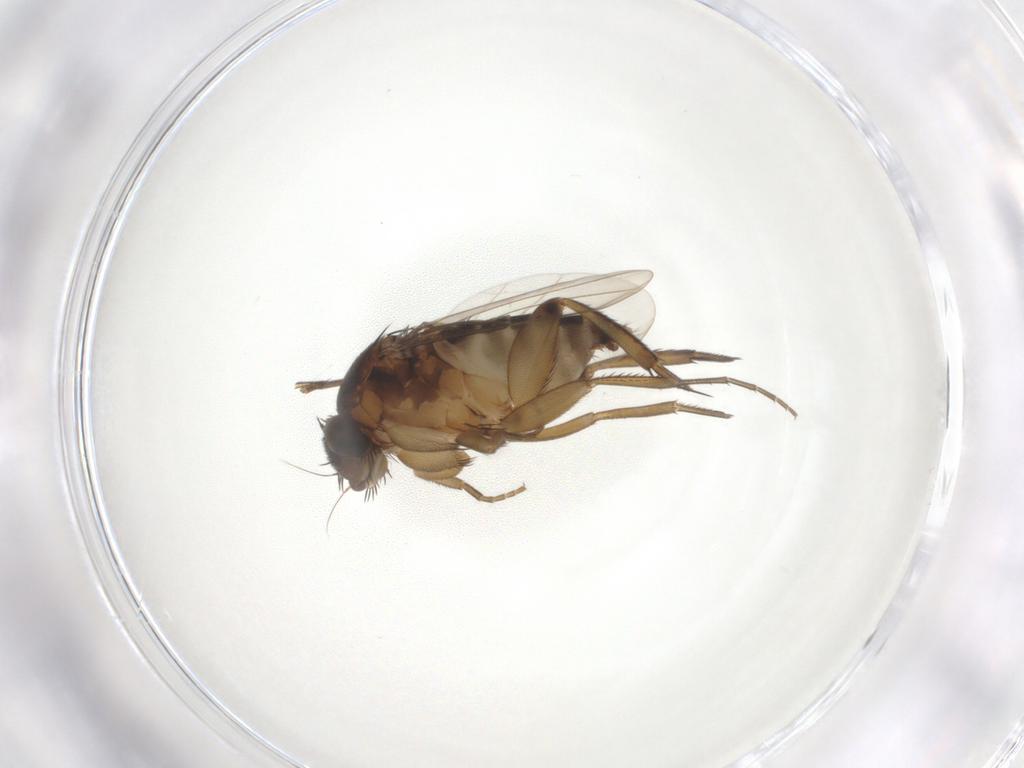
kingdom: Animalia
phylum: Arthropoda
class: Insecta
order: Diptera
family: Phoridae
